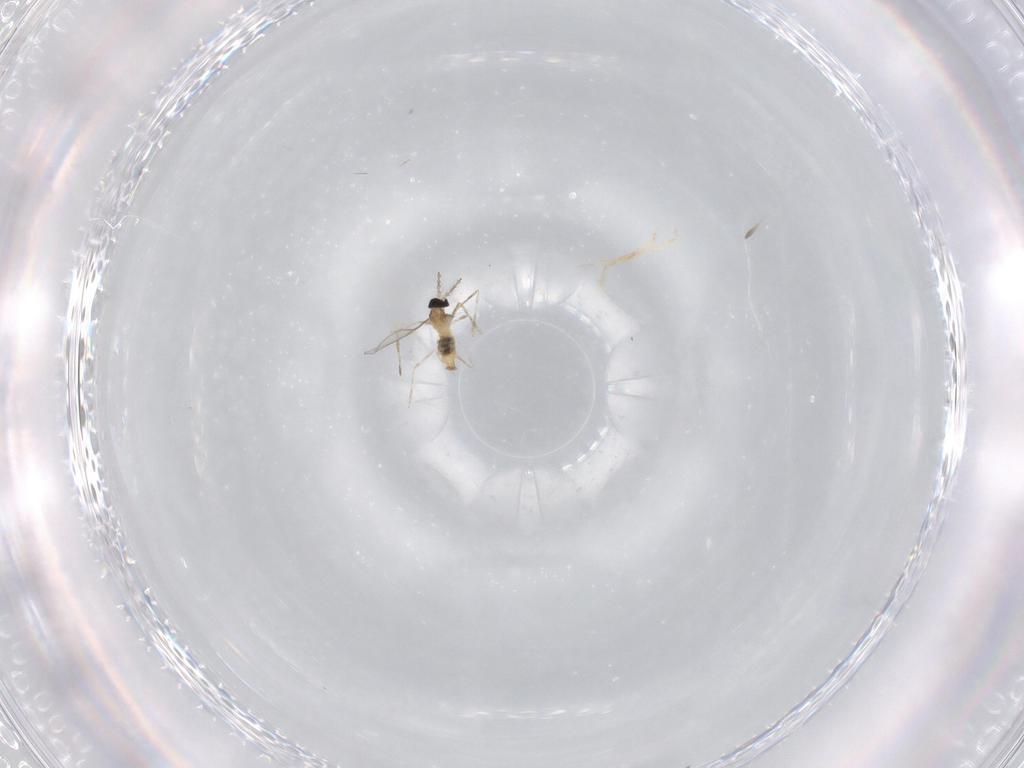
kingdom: Animalia
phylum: Arthropoda
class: Insecta
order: Diptera
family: Cecidomyiidae
